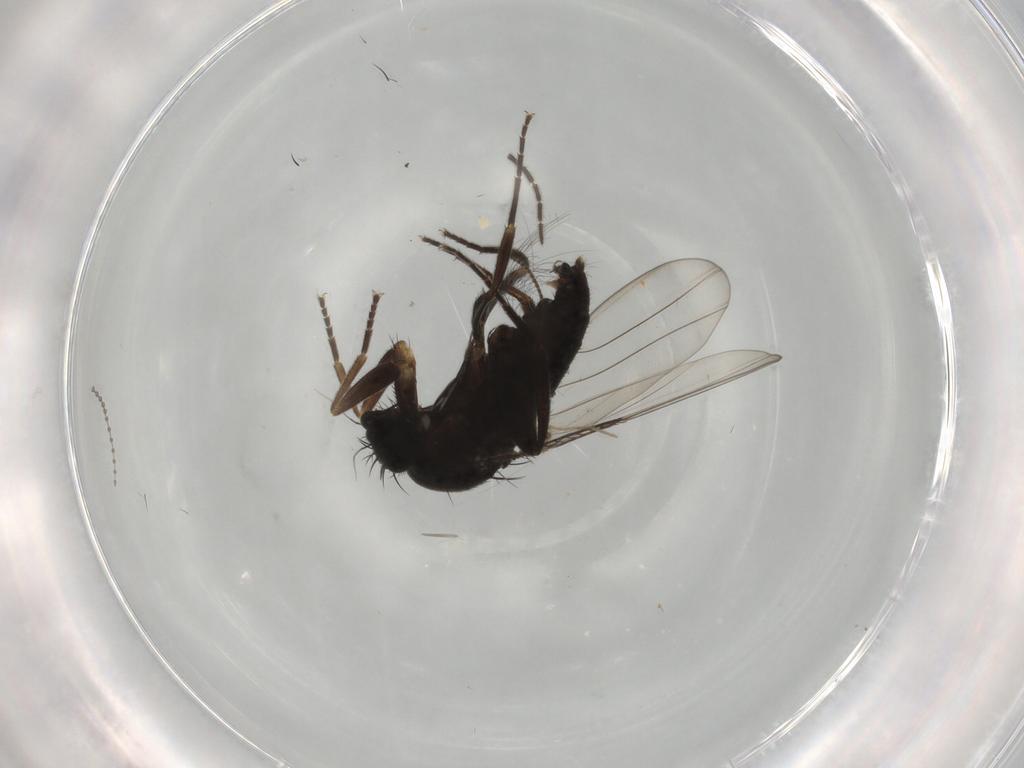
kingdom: Animalia
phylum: Arthropoda
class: Insecta
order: Diptera
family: Phoridae
